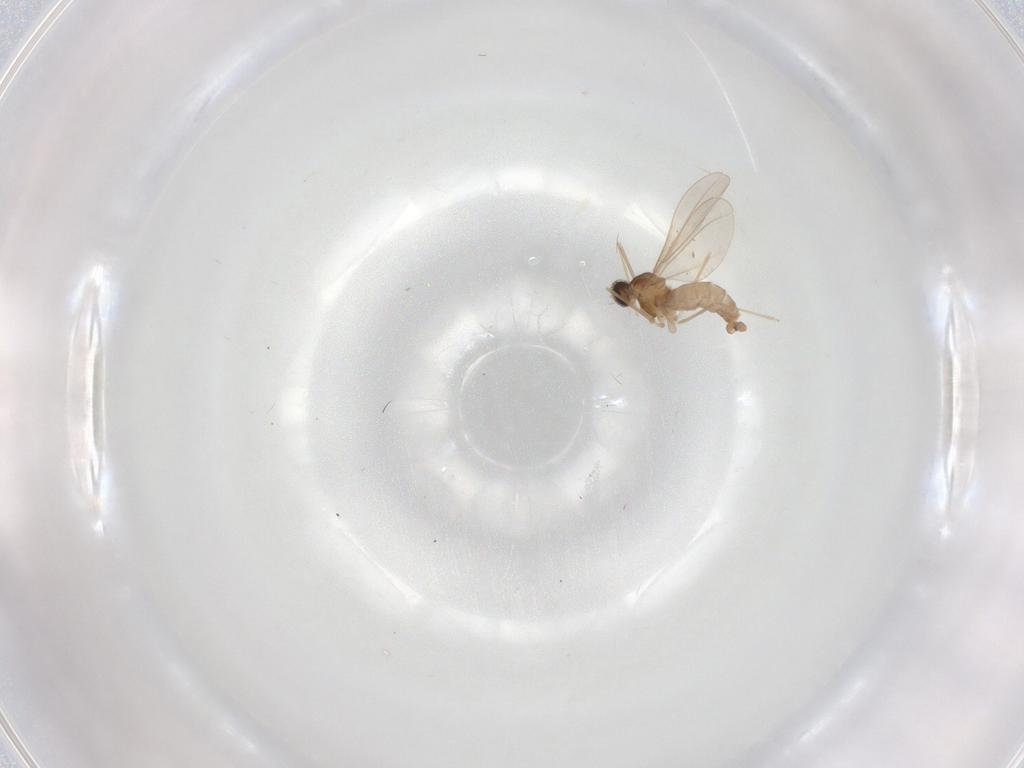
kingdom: Animalia
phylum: Arthropoda
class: Insecta
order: Diptera
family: Cecidomyiidae
